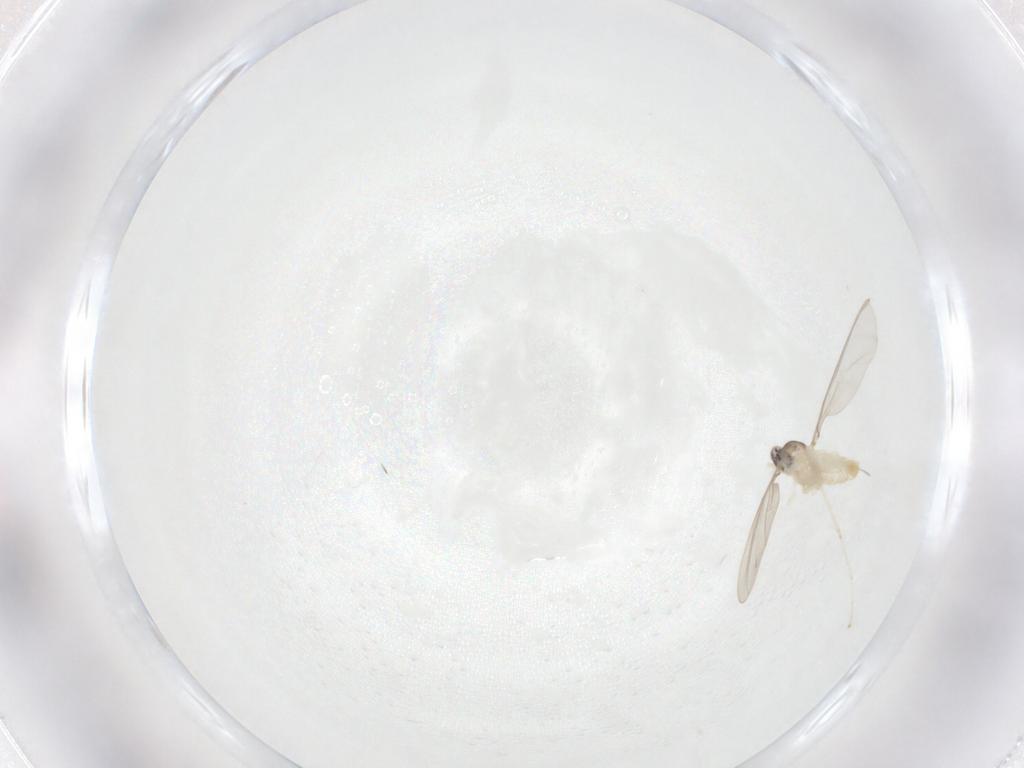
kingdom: Animalia
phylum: Arthropoda
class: Insecta
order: Diptera
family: Cecidomyiidae
